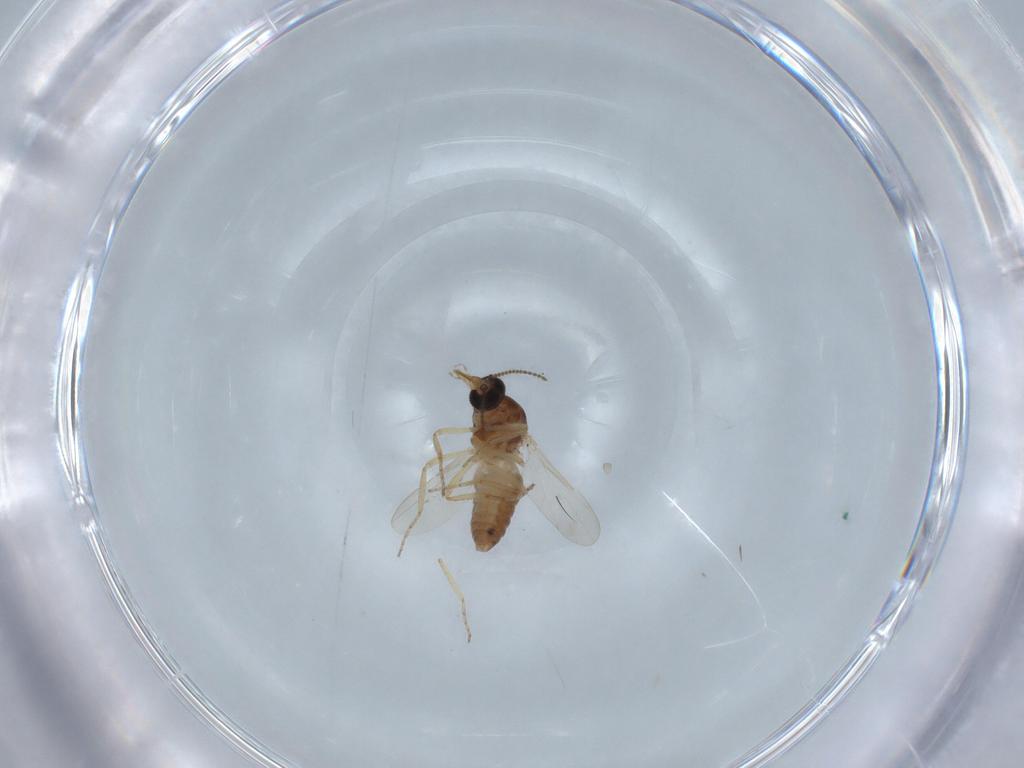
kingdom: Animalia
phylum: Arthropoda
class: Insecta
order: Diptera
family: Ceratopogonidae
